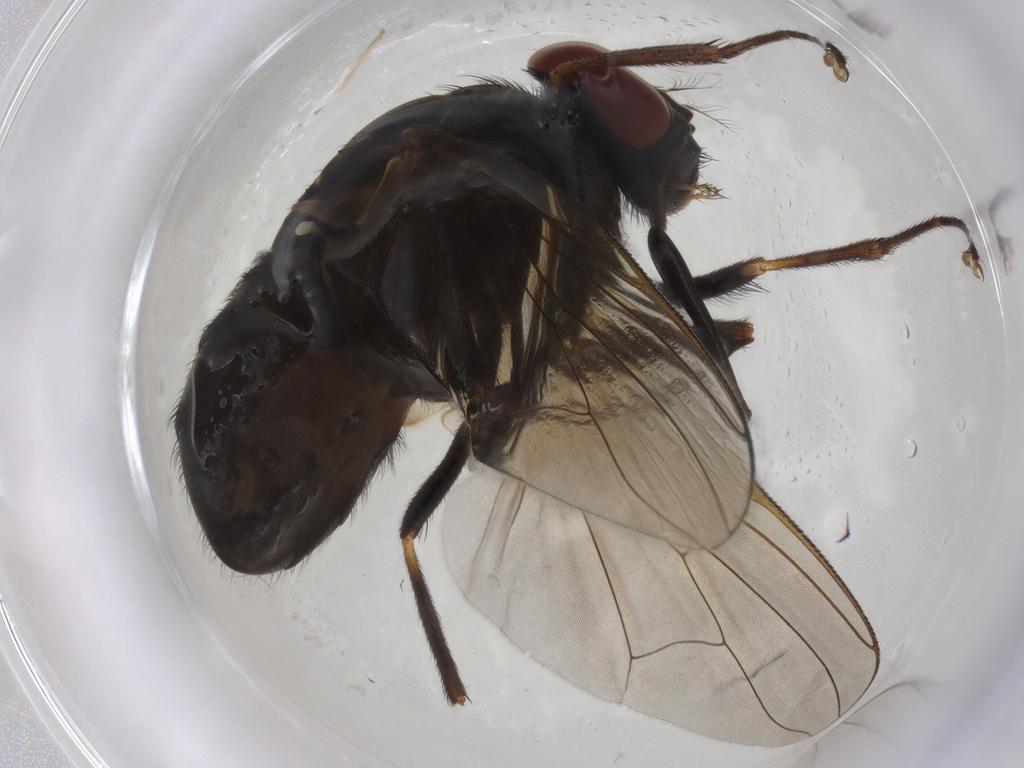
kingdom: Animalia
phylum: Arthropoda
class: Insecta
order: Diptera
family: Muscidae
